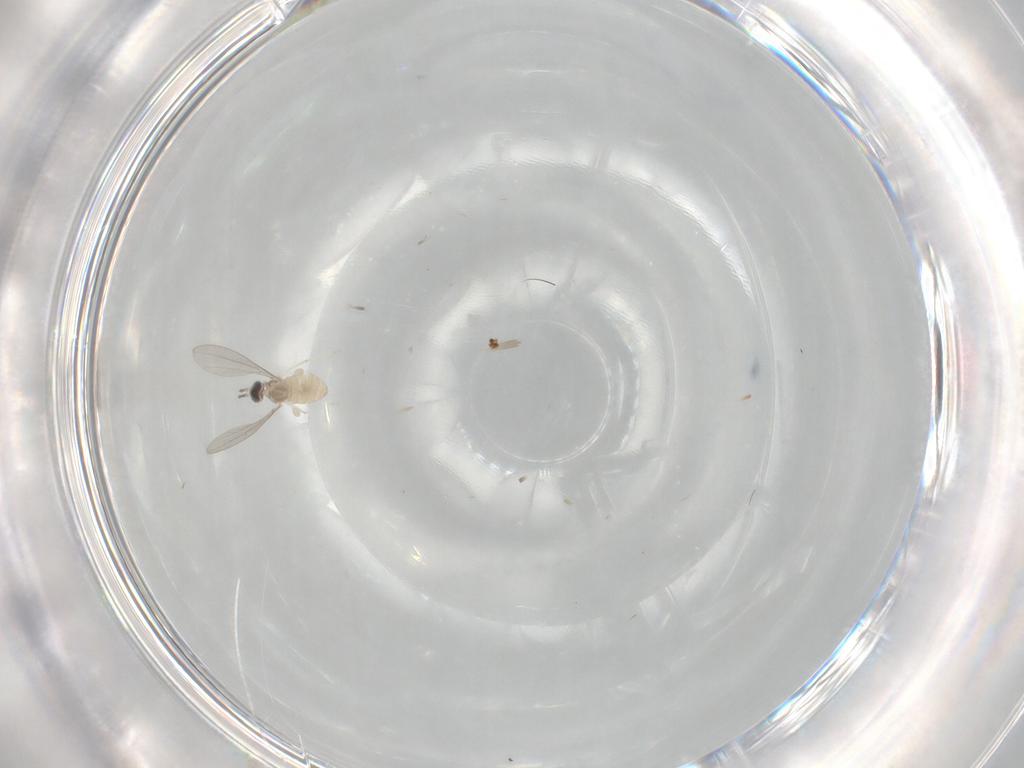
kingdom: Animalia
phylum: Arthropoda
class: Insecta
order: Diptera
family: Cecidomyiidae
